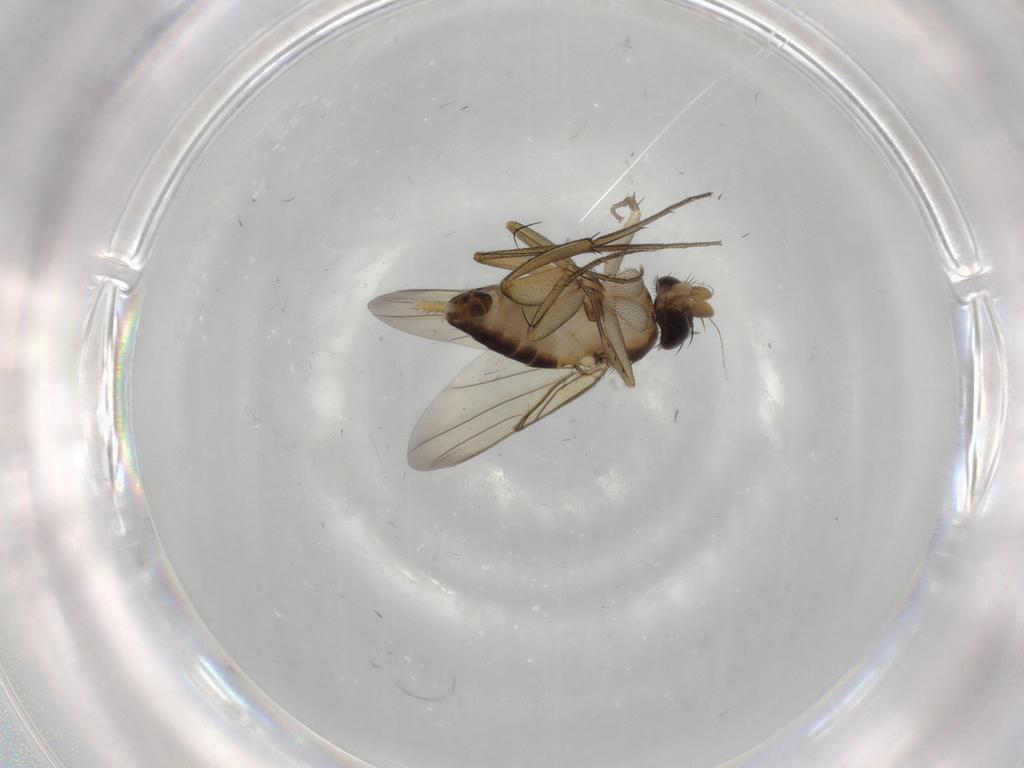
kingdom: Animalia
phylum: Arthropoda
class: Insecta
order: Diptera
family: Phoridae
